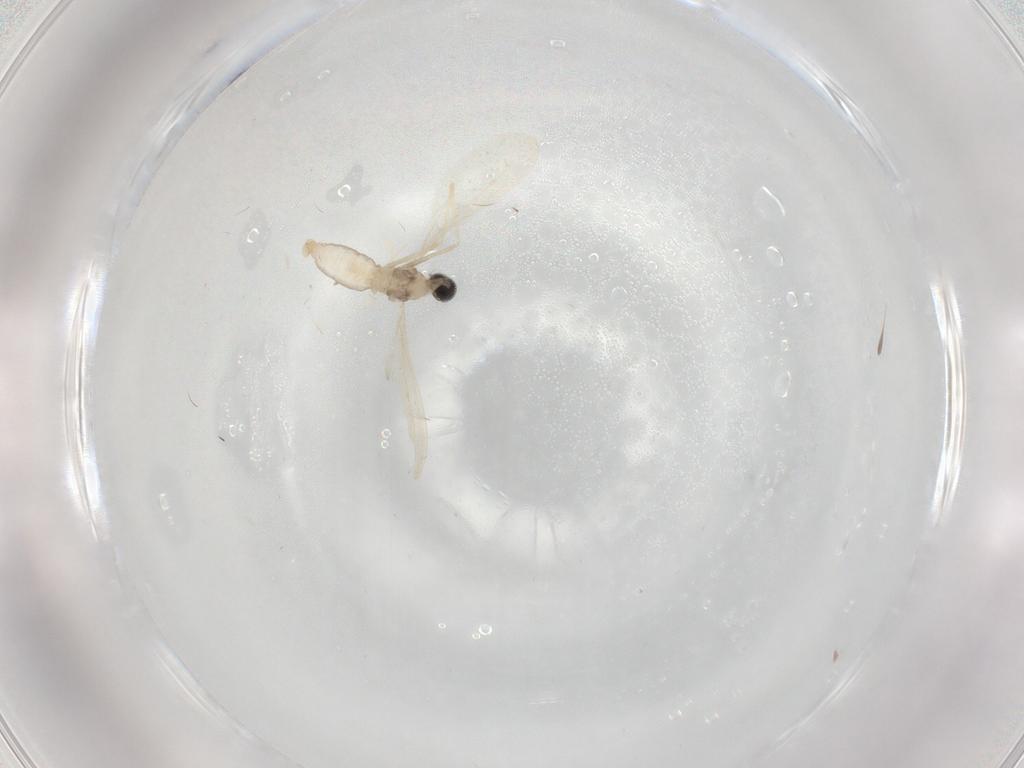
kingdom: Animalia
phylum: Arthropoda
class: Insecta
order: Diptera
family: Cecidomyiidae
